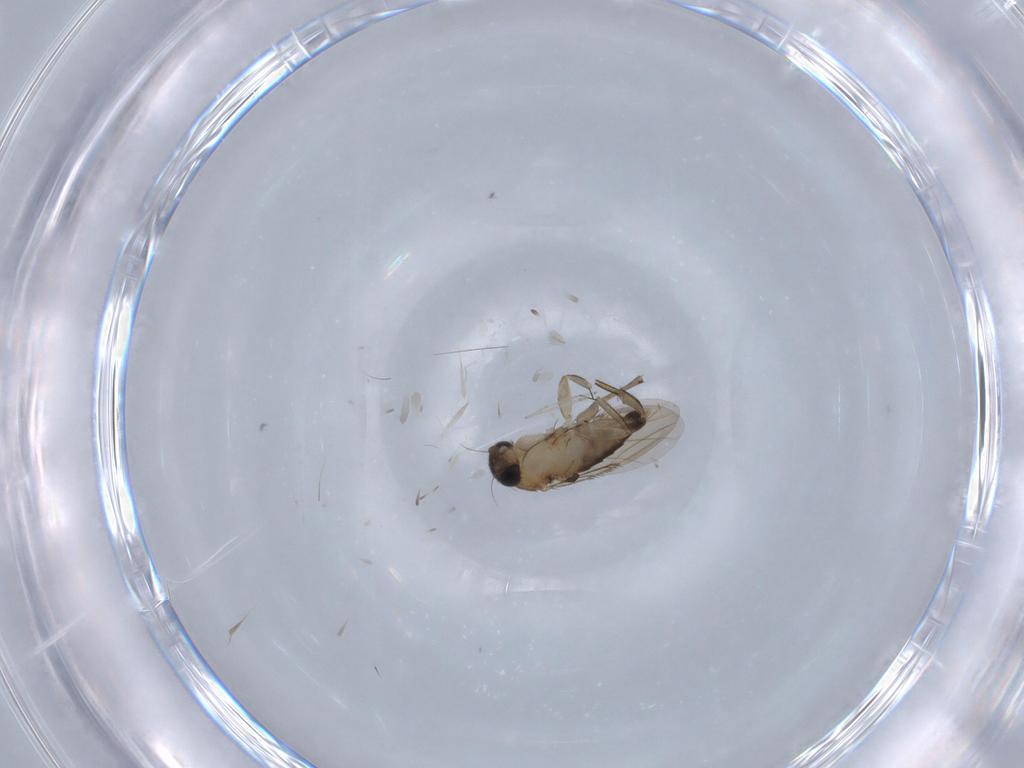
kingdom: Animalia
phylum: Arthropoda
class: Insecta
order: Diptera
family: Phoridae
